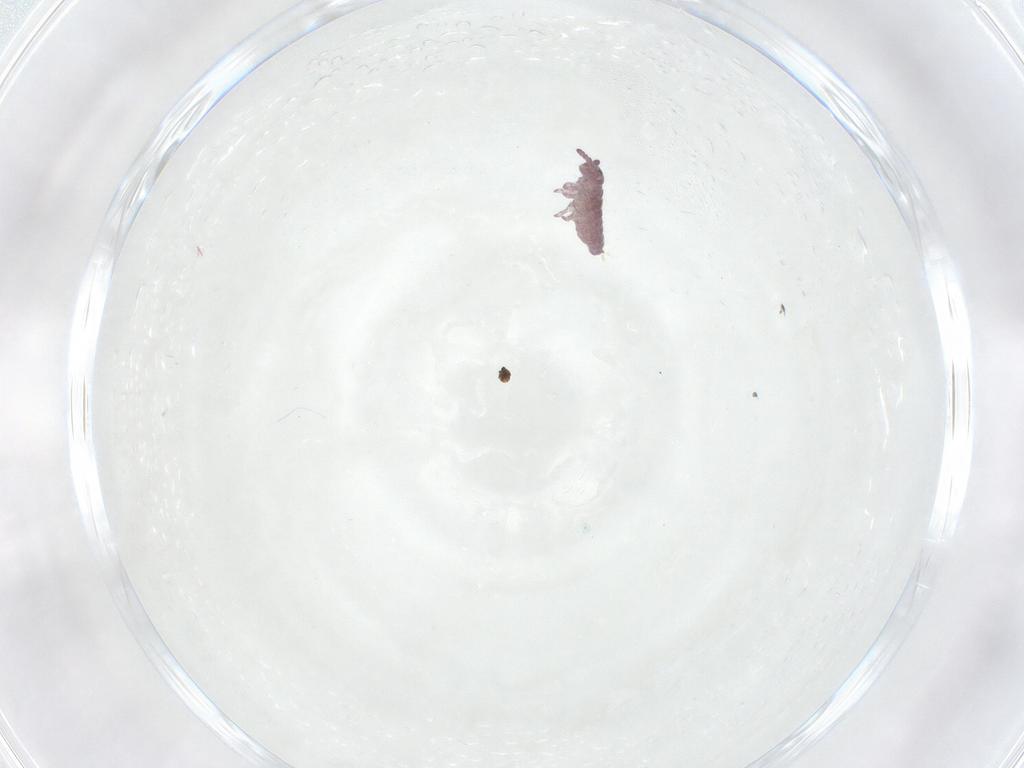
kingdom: Animalia
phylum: Arthropoda
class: Collembola
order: Poduromorpha
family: Hypogastruridae
